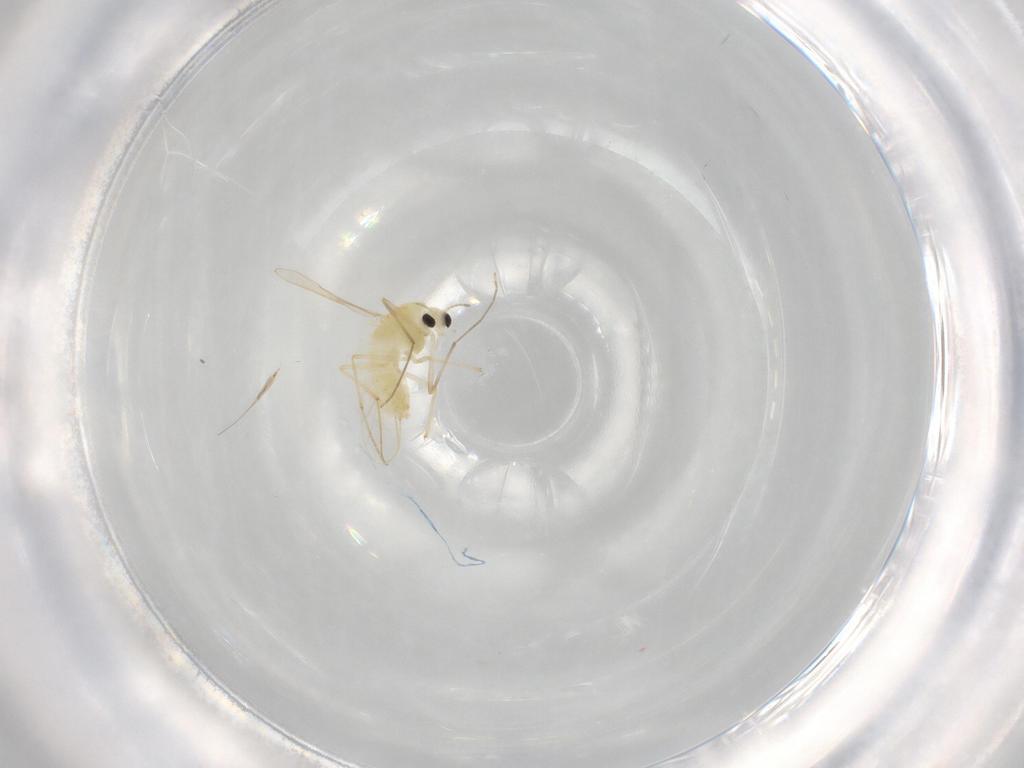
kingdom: Animalia
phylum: Arthropoda
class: Insecta
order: Diptera
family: Chironomidae
